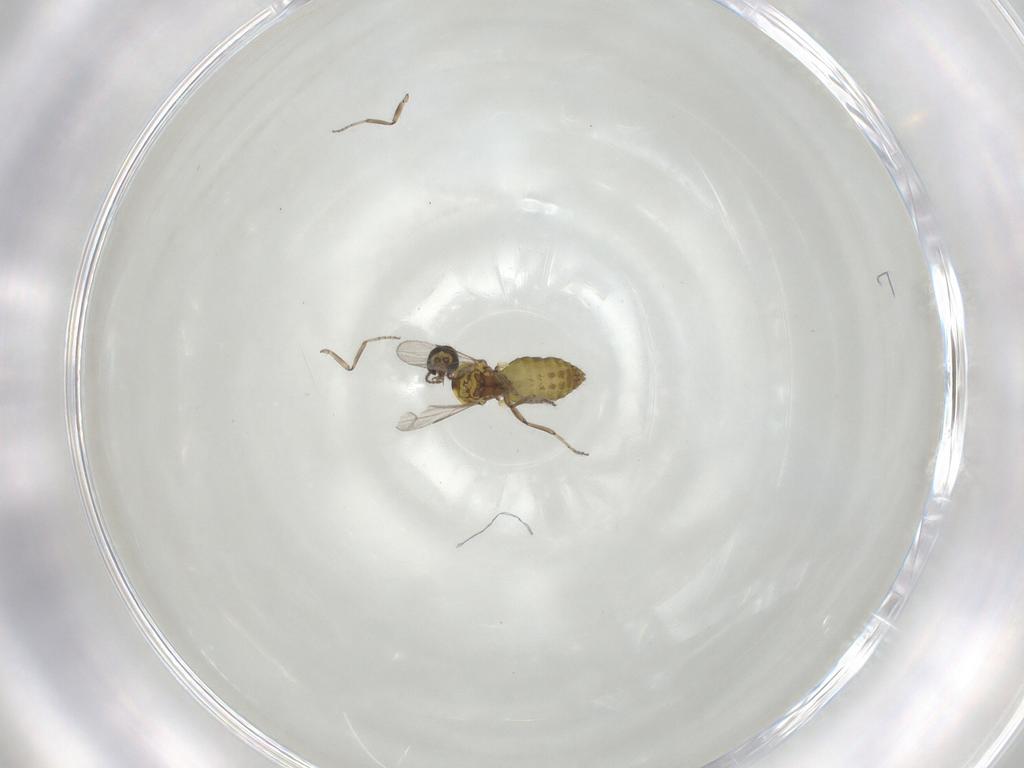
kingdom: Animalia
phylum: Arthropoda
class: Insecta
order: Diptera
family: Ceratopogonidae
